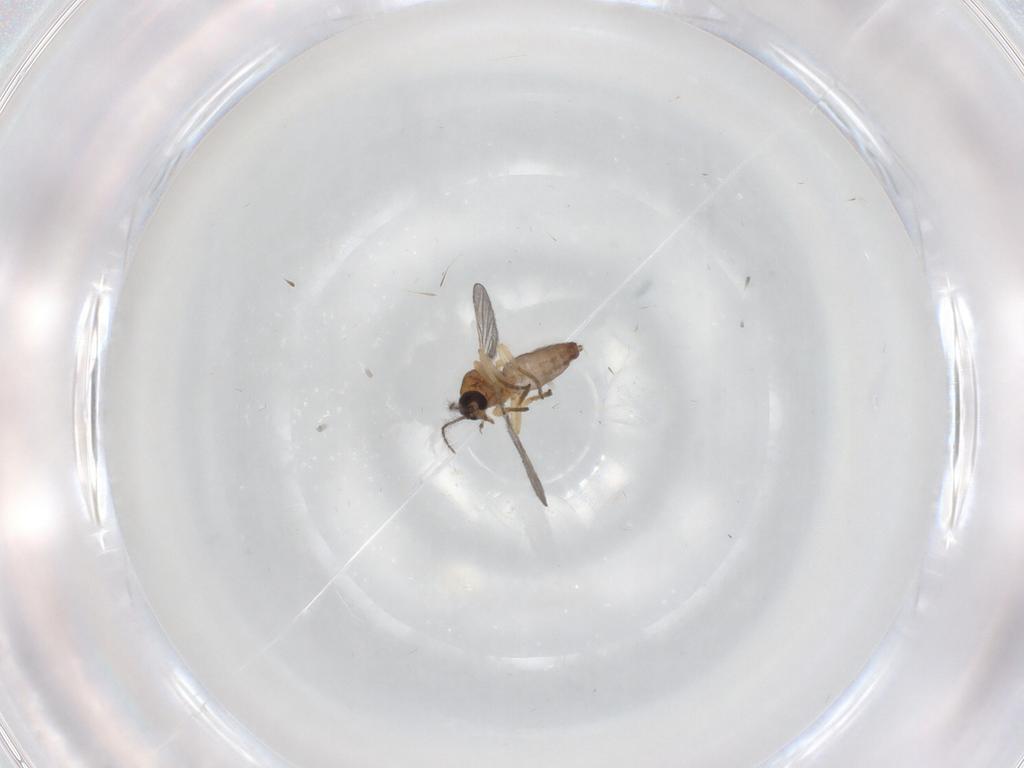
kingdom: Animalia
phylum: Arthropoda
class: Insecta
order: Diptera
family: Ceratopogonidae
